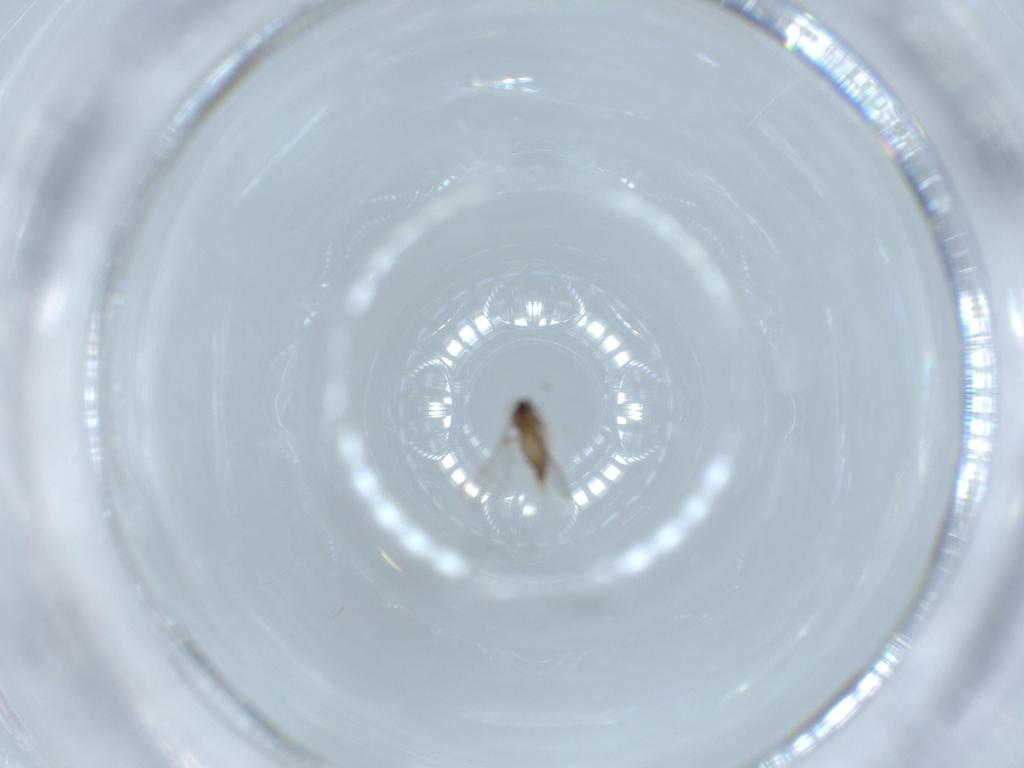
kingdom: Animalia
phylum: Arthropoda
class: Insecta
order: Diptera
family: Cecidomyiidae
